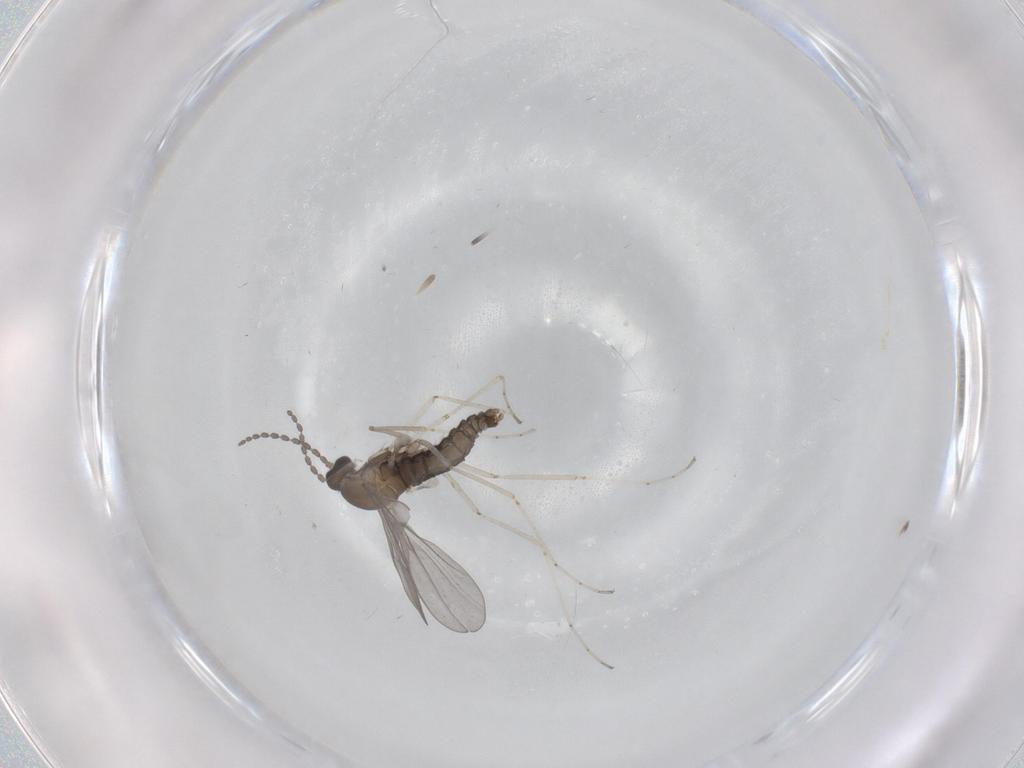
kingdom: Animalia
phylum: Arthropoda
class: Insecta
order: Diptera
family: Cecidomyiidae
